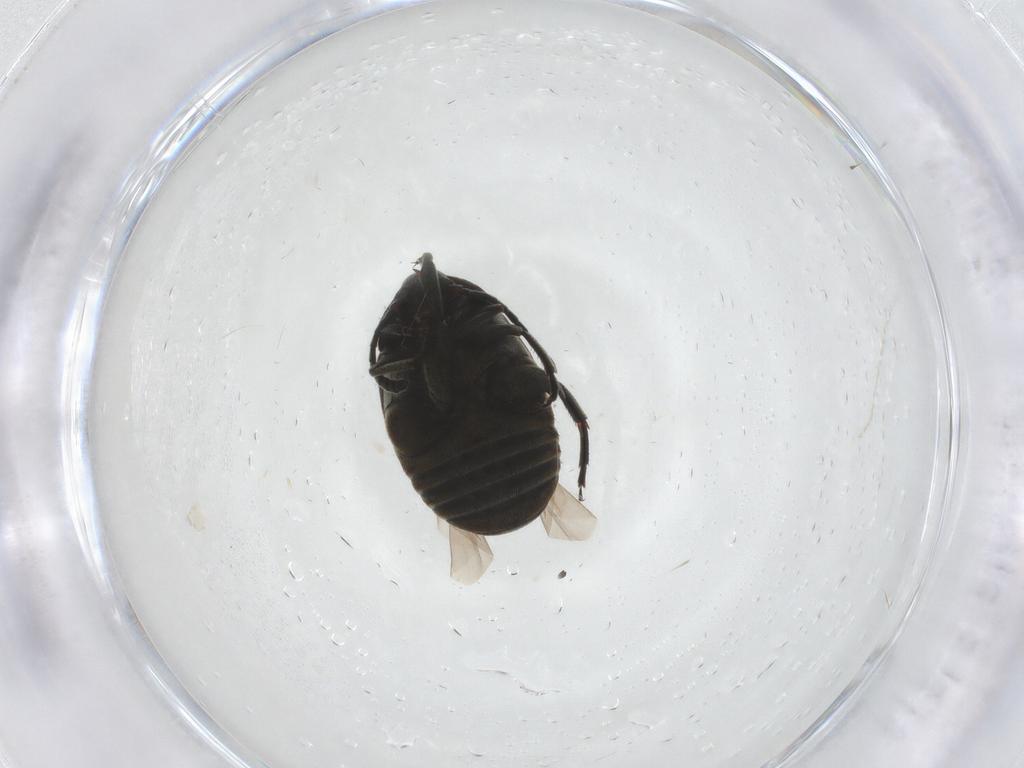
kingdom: Animalia
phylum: Arthropoda
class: Insecta
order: Coleoptera
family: Chrysomelidae
